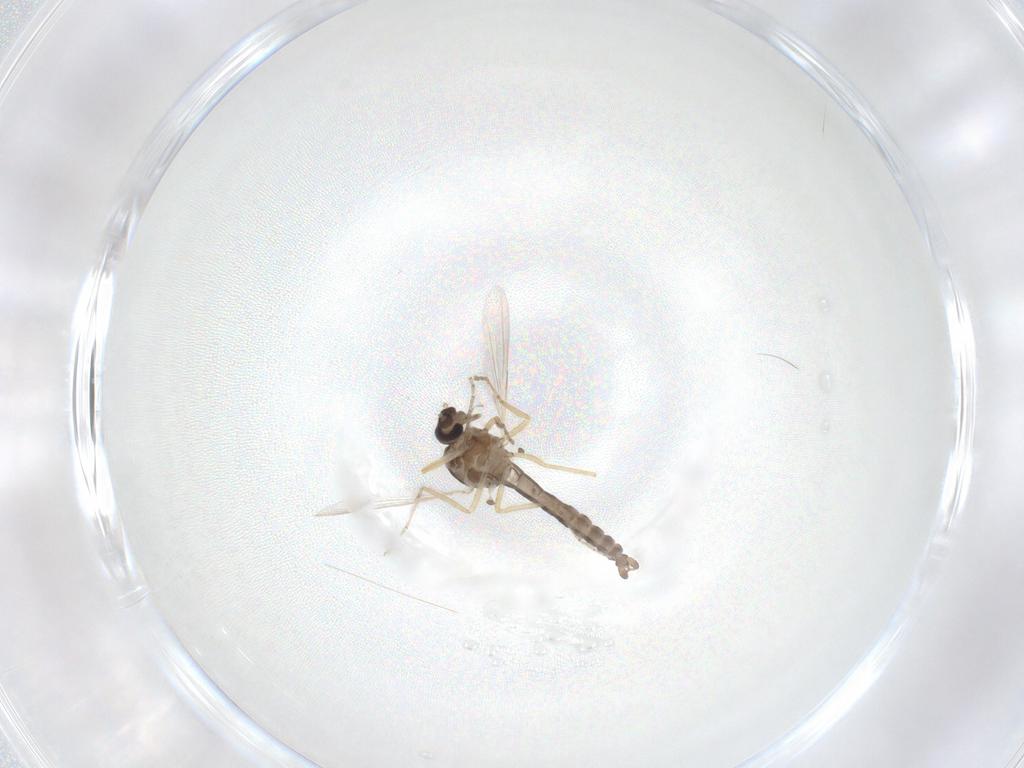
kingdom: Animalia
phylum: Arthropoda
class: Insecta
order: Diptera
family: Ceratopogonidae
